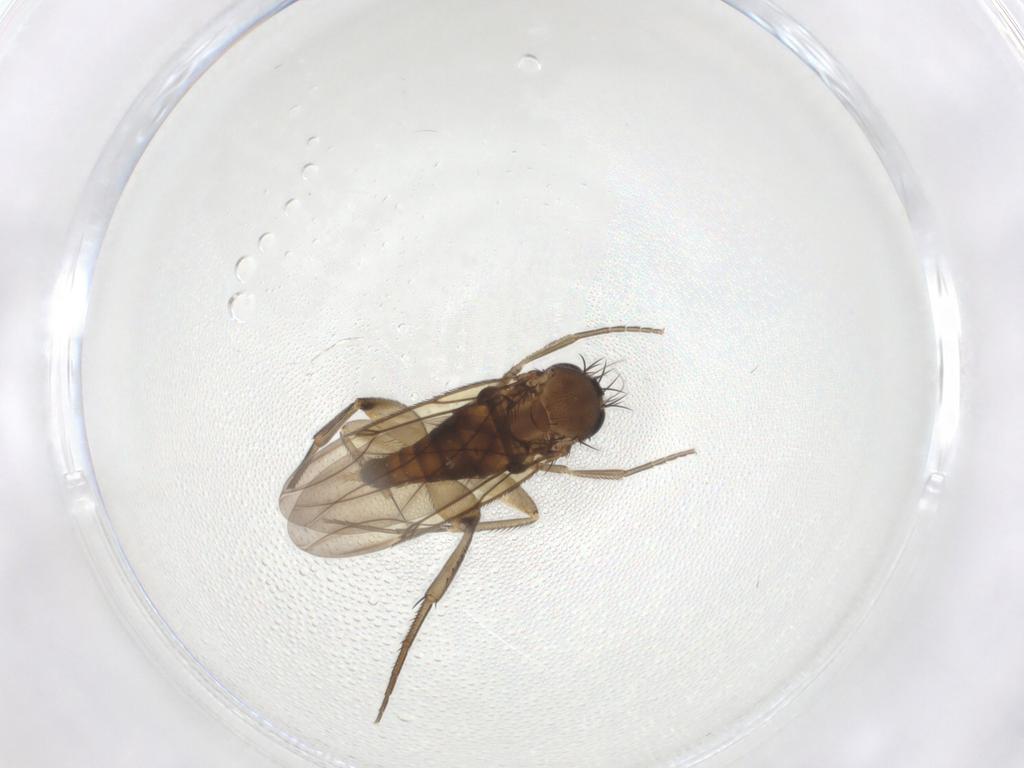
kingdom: Animalia
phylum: Arthropoda
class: Insecta
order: Diptera
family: Phoridae
